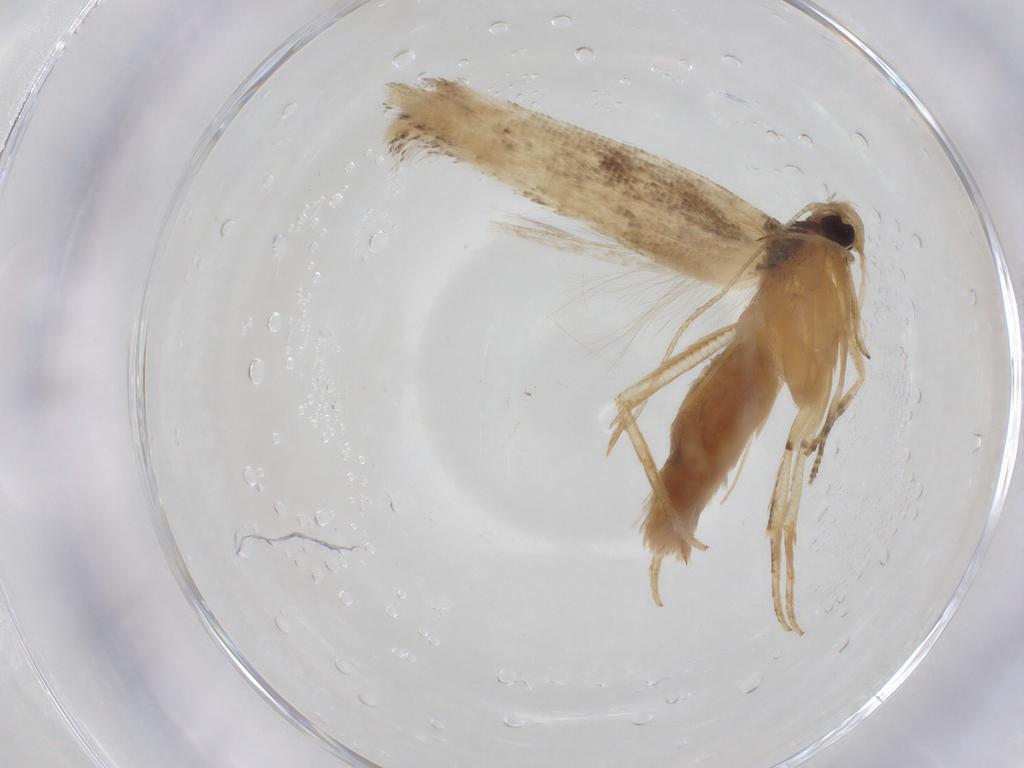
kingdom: Animalia
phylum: Arthropoda
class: Insecta
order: Lepidoptera
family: Cosmopterigidae
